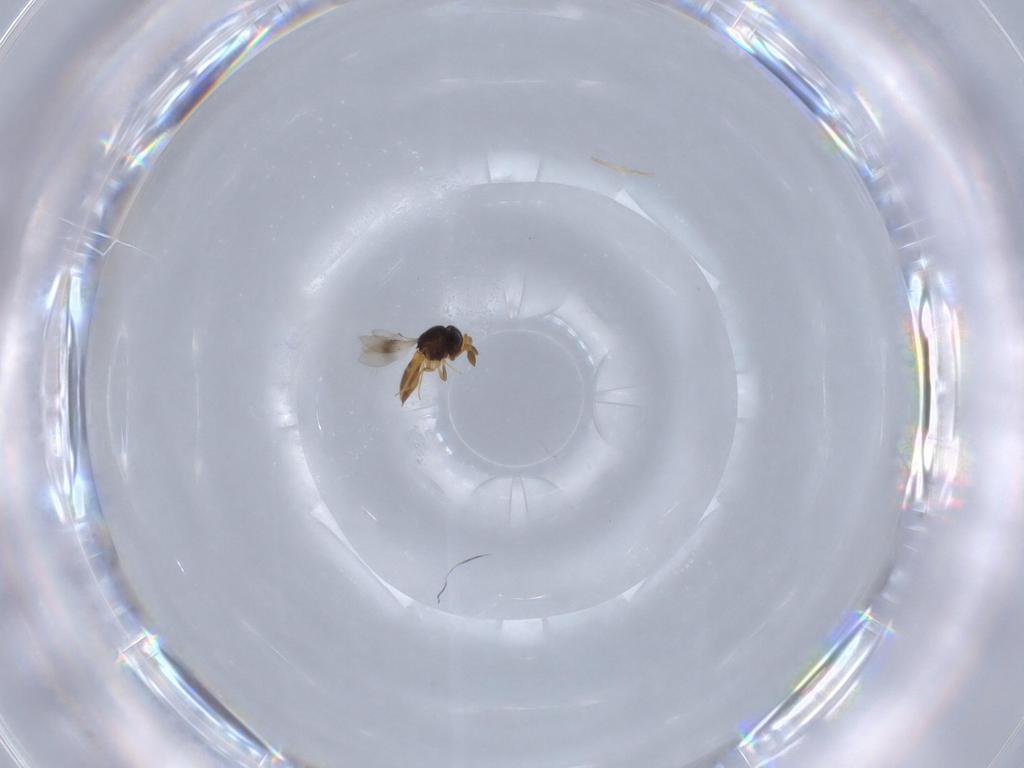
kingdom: Animalia
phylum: Arthropoda
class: Insecta
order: Hymenoptera
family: Scelionidae
